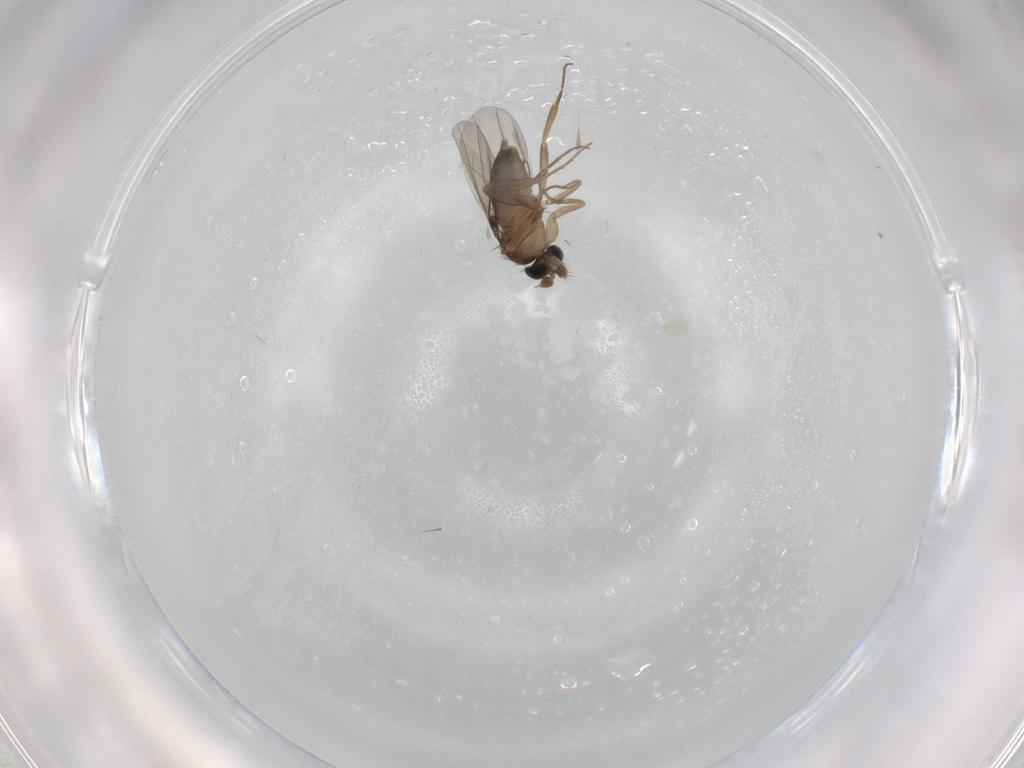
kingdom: Animalia
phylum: Arthropoda
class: Insecta
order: Diptera
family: Phoridae
